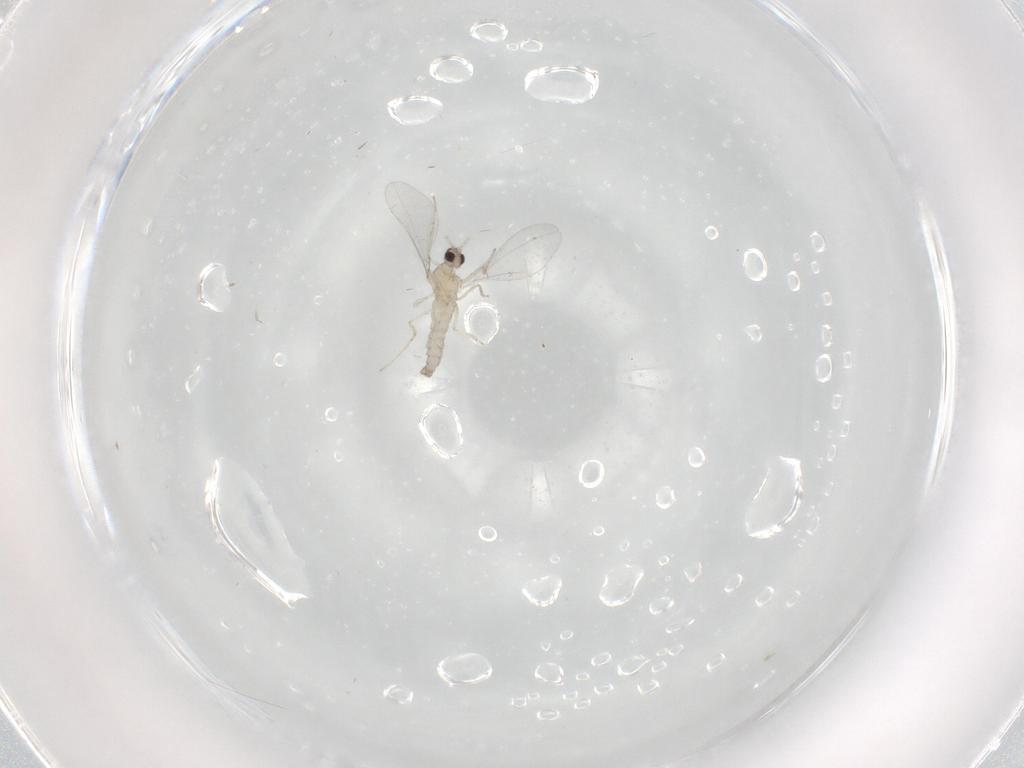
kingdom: Animalia
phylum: Arthropoda
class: Insecta
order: Diptera
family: Cecidomyiidae
